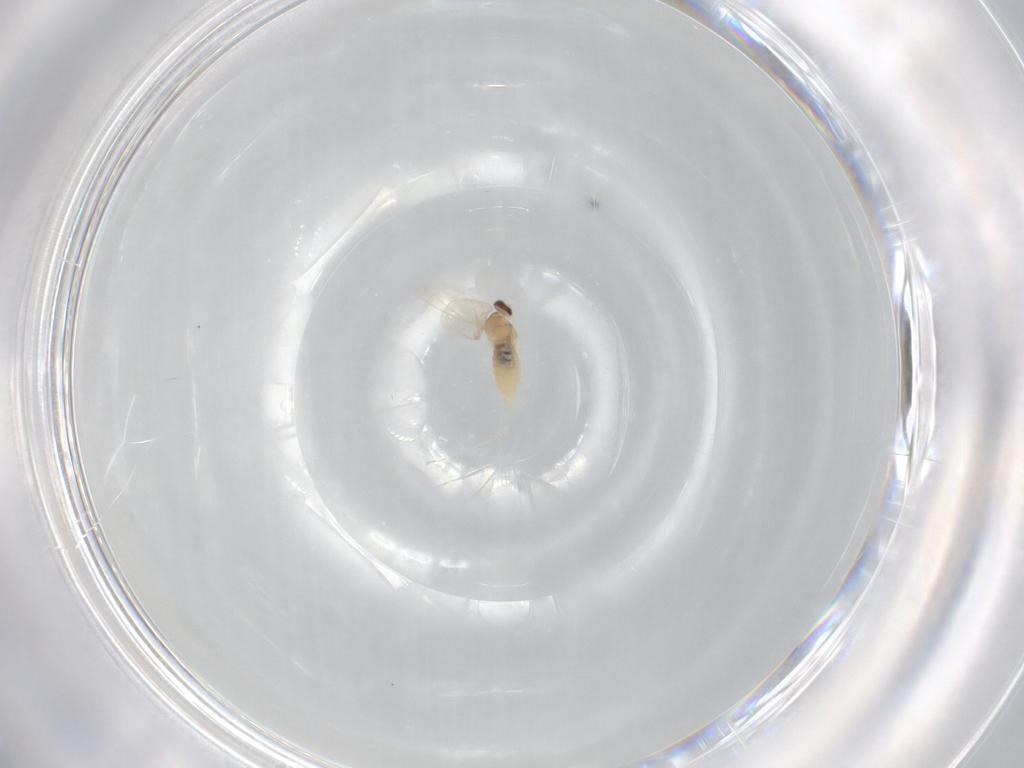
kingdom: Animalia
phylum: Arthropoda
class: Insecta
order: Diptera
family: Cecidomyiidae
